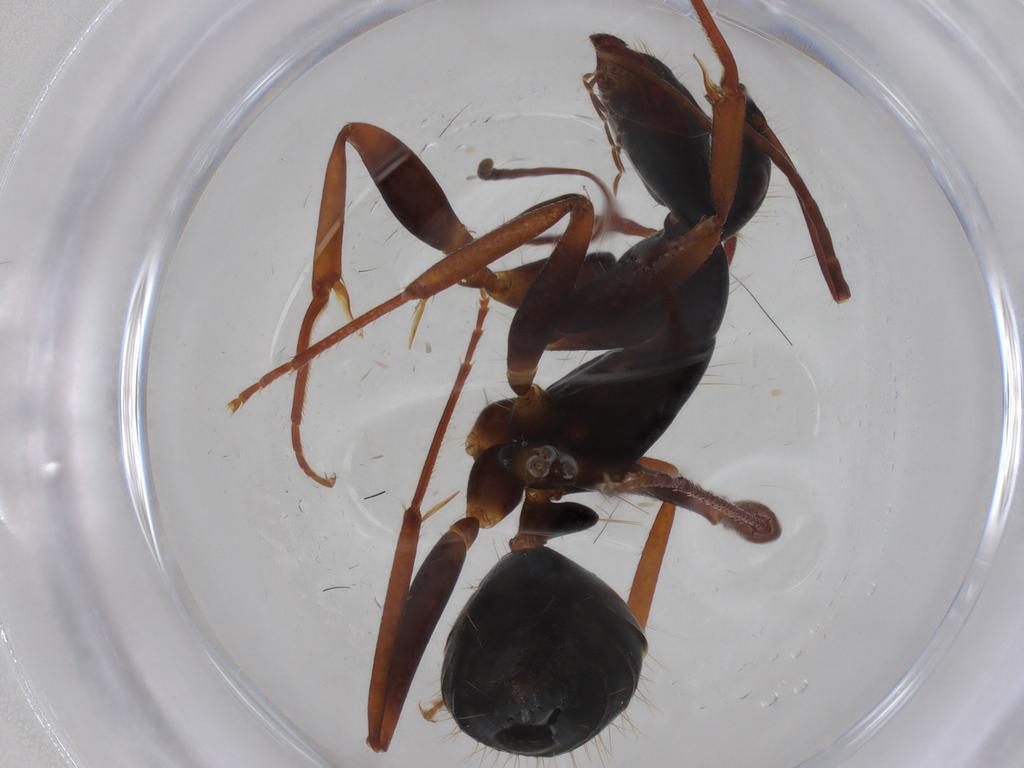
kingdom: Animalia
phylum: Arthropoda
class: Insecta
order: Hymenoptera
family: Formicidae
